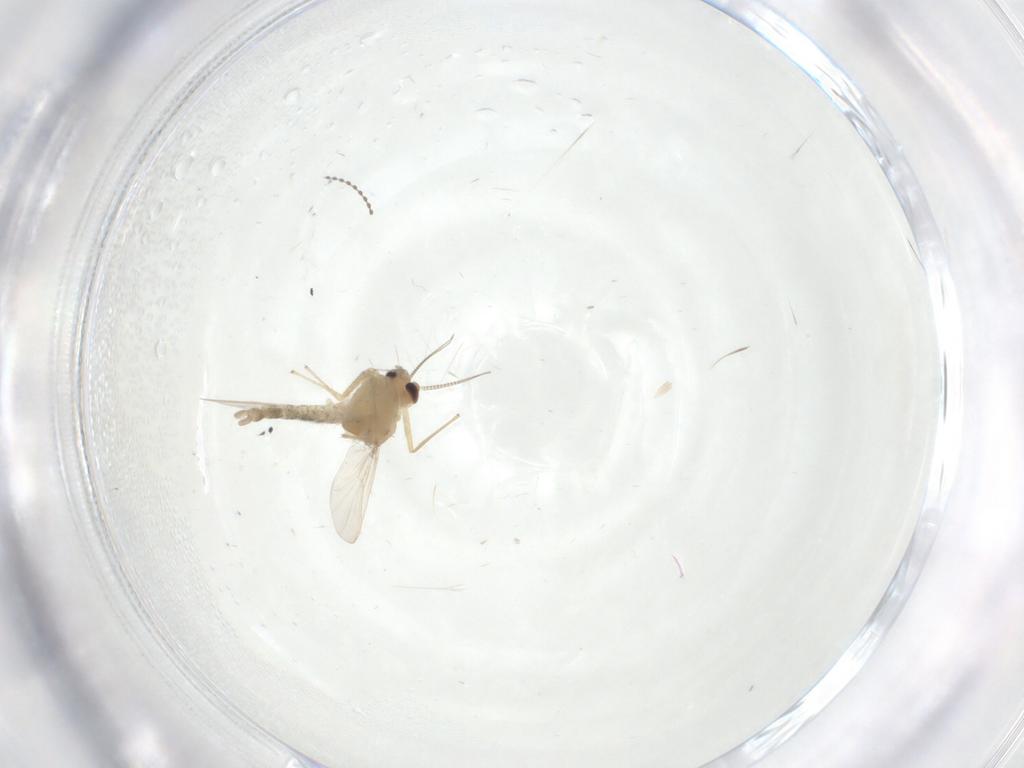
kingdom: Animalia
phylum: Arthropoda
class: Insecta
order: Diptera
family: Chironomidae
